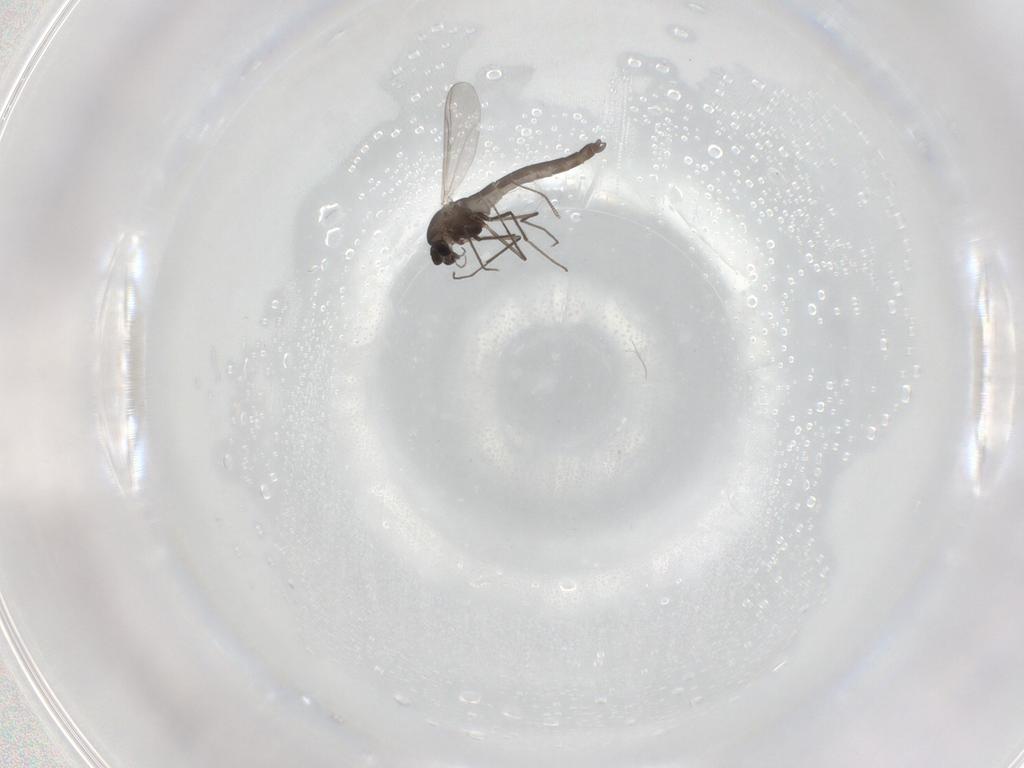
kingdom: Animalia
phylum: Arthropoda
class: Insecta
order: Diptera
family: Chironomidae
